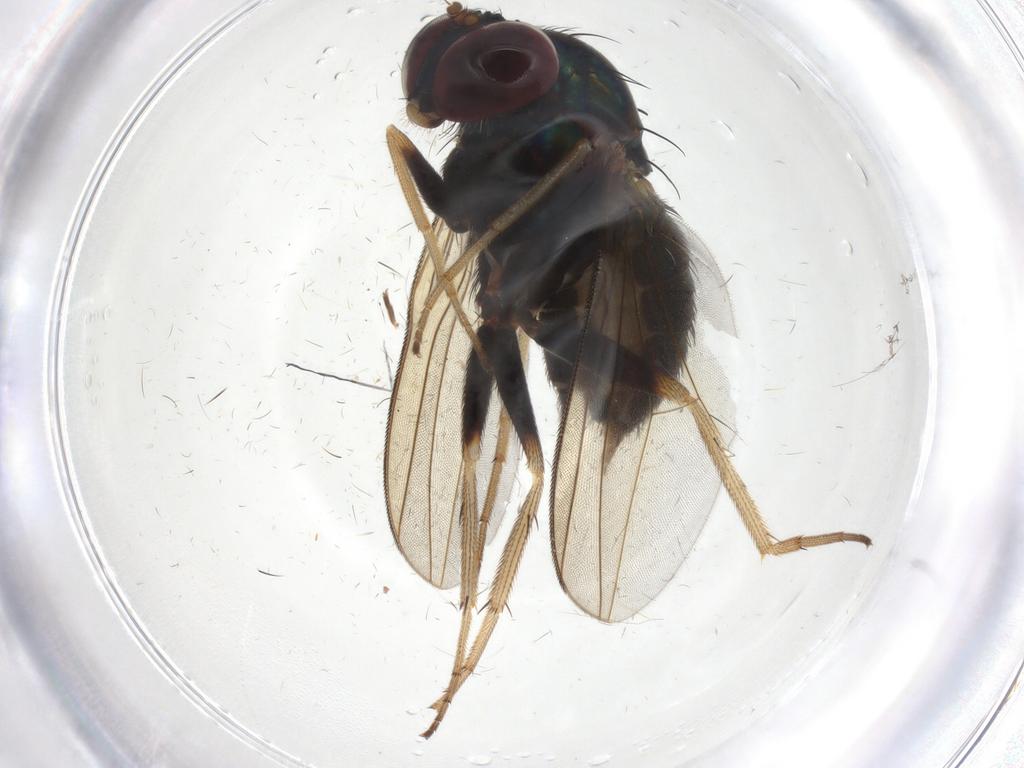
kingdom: Animalia
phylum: Arthropoda
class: Insecta
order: Diptera
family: Dolichopodidae
